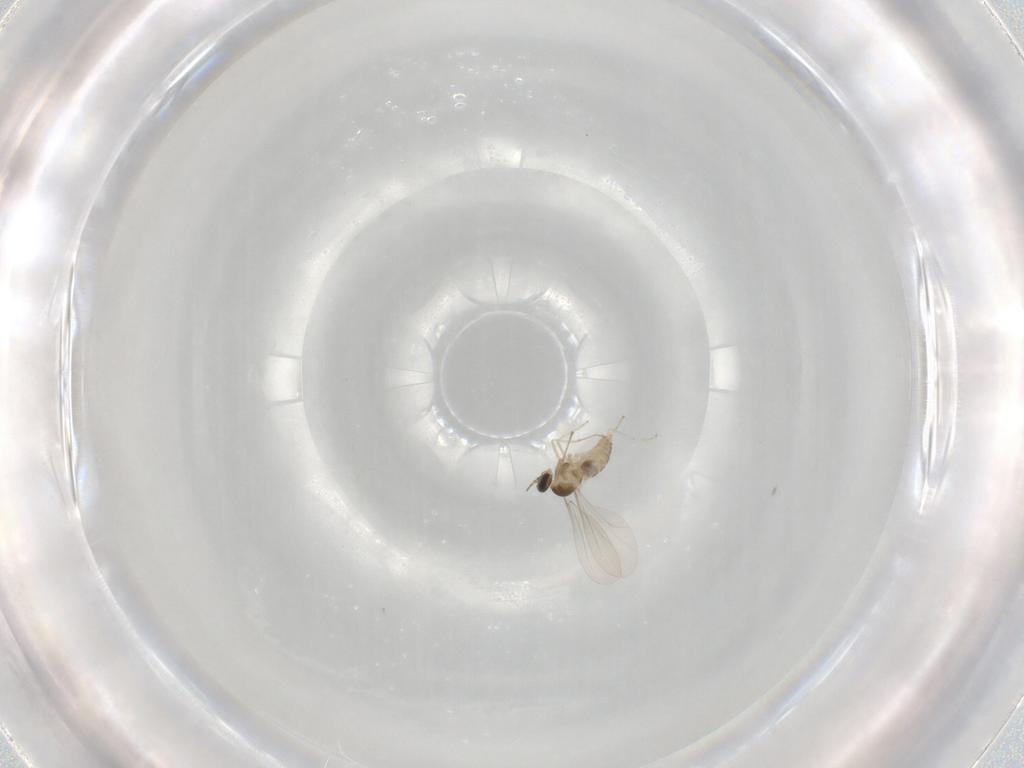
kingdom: Animalia
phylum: Arthropoda
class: Insecta
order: Diptera
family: Cecidomyiidae
